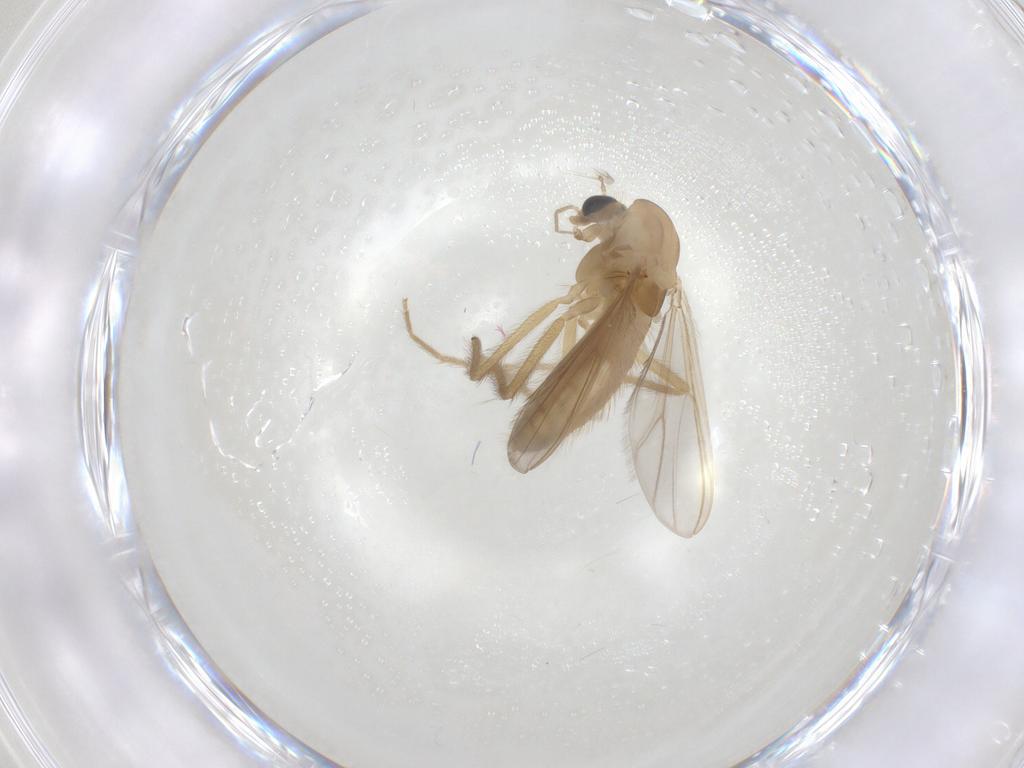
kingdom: Animalia
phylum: Arthropoda
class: Insecta
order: Diptera
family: Chironomidae
